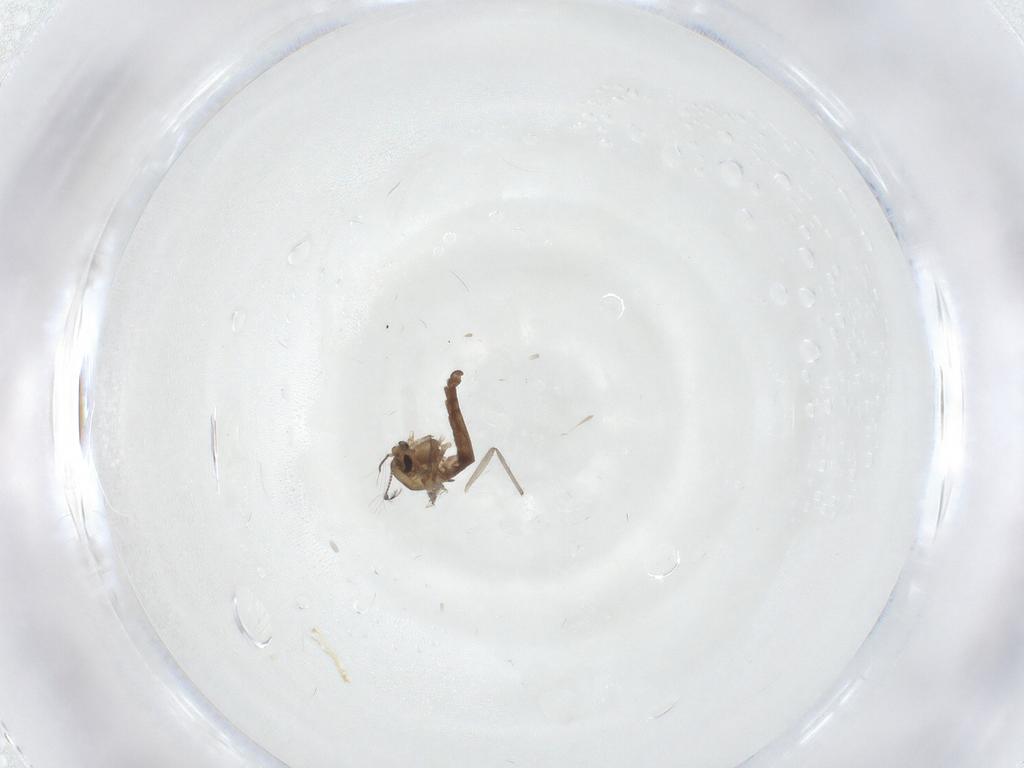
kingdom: Animalia
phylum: Arthropoda
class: Insecta
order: Diptera
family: Chironomidae
